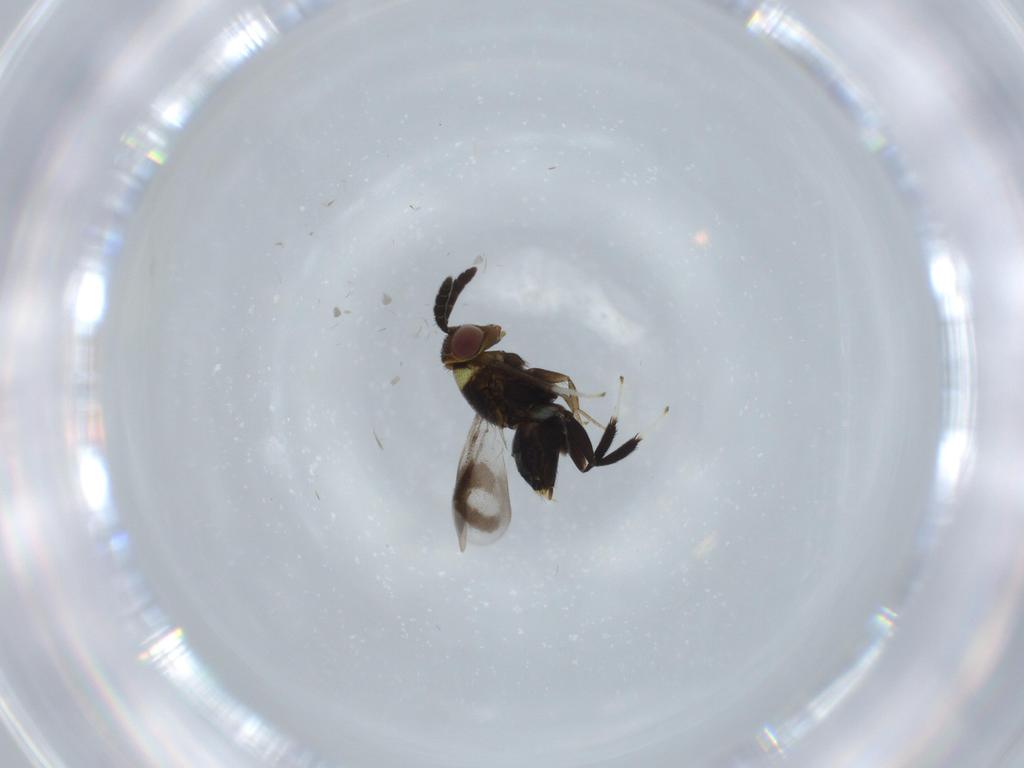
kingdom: Animalia
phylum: Arthropoda
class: Insecta
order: Hymenoptera
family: Aphelinidae
